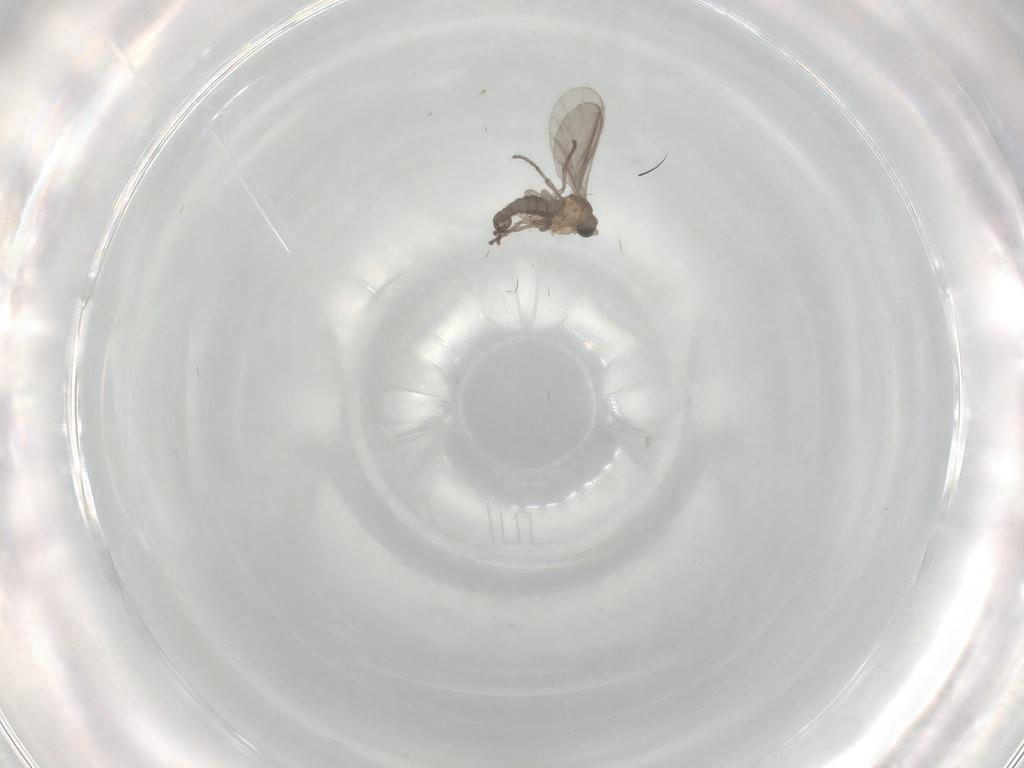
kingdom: Animalia
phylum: Arthropoda
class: Insecta
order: Diptera
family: Sciaridae
